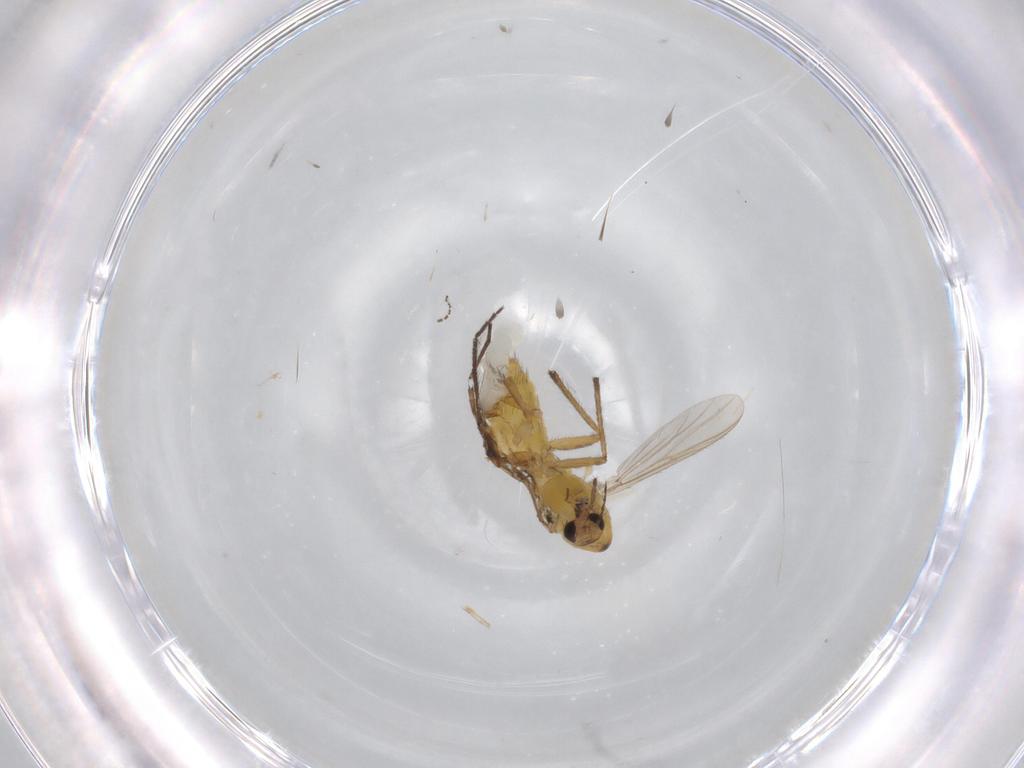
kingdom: Animalia
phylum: Arthropoda
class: Insecta
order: Diptera
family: Chironomidae
